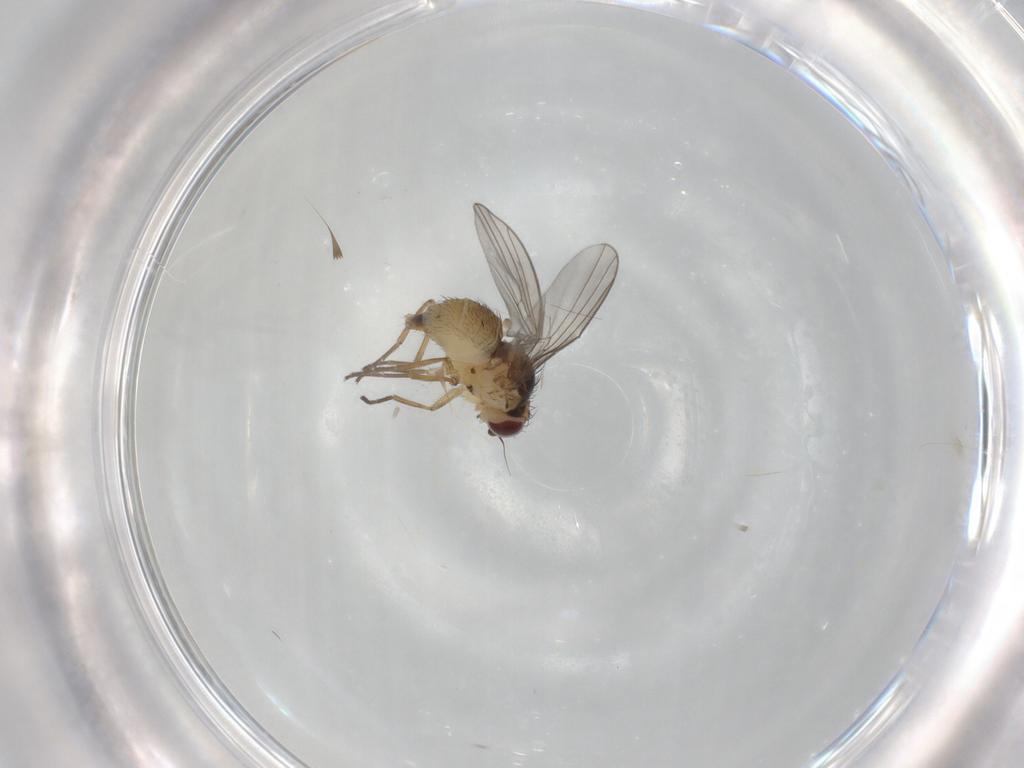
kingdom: Animalia
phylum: Arthropoda
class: Insecta
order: Diptera
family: Agromyzidae
